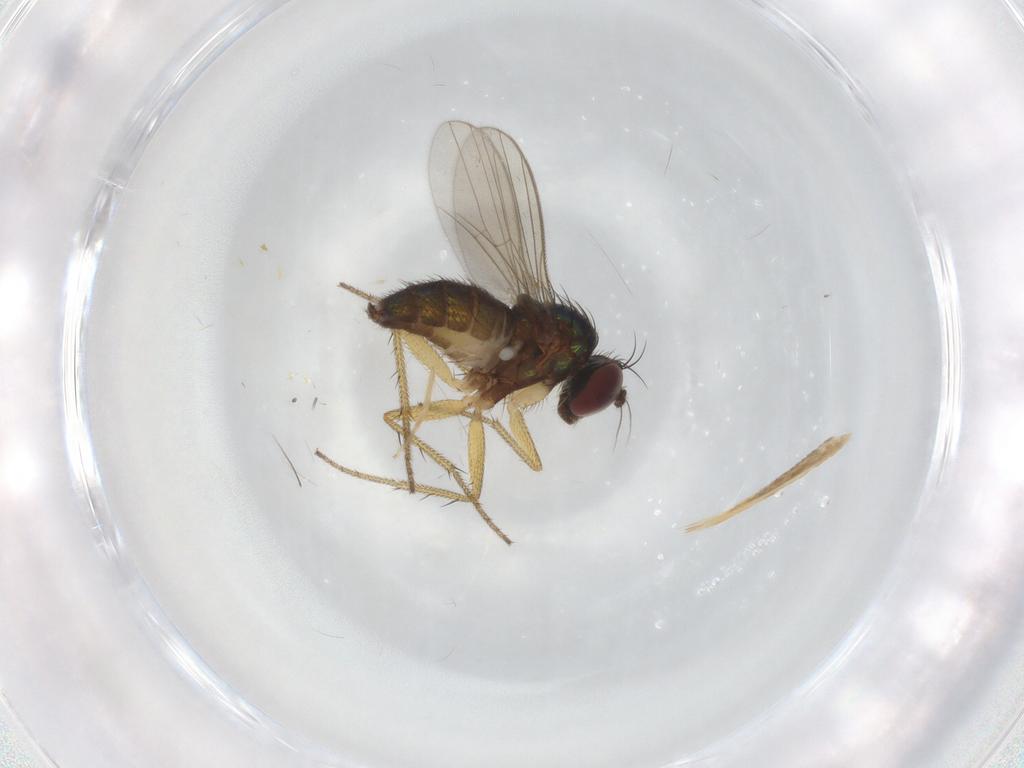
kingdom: Animalia
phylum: Arthropoda
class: Insecta
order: Diptera
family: Dolichopodidae
